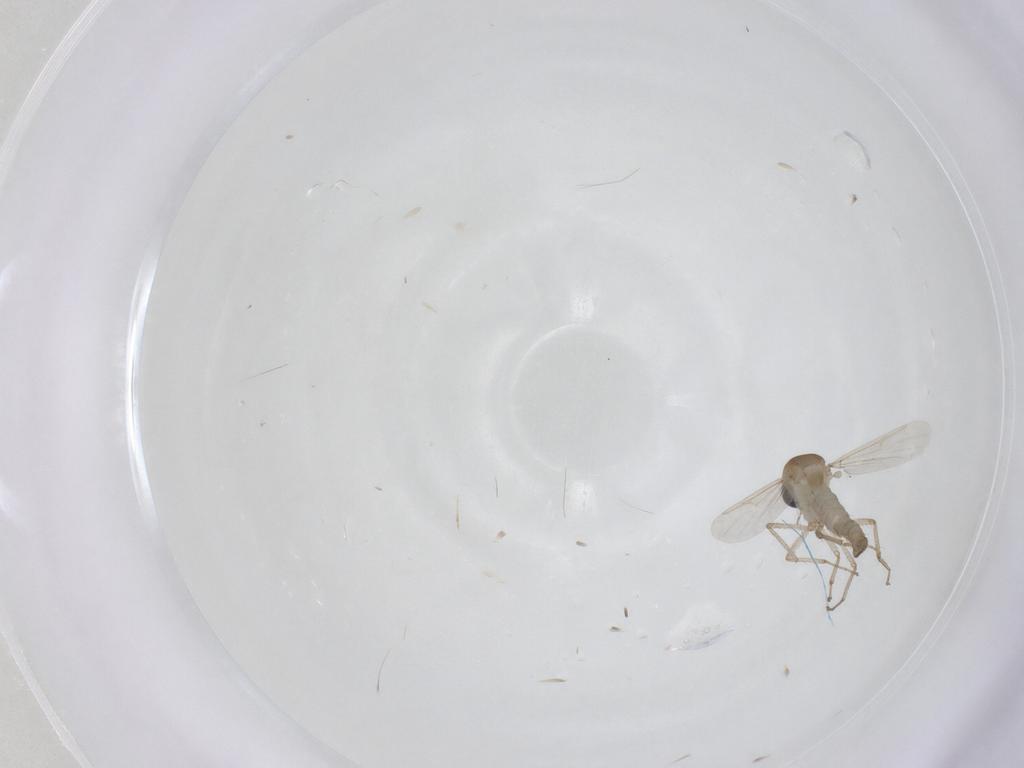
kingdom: Animalia
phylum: Arthropoda
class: Insecta
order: Diptera
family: Ceratopogonidae
